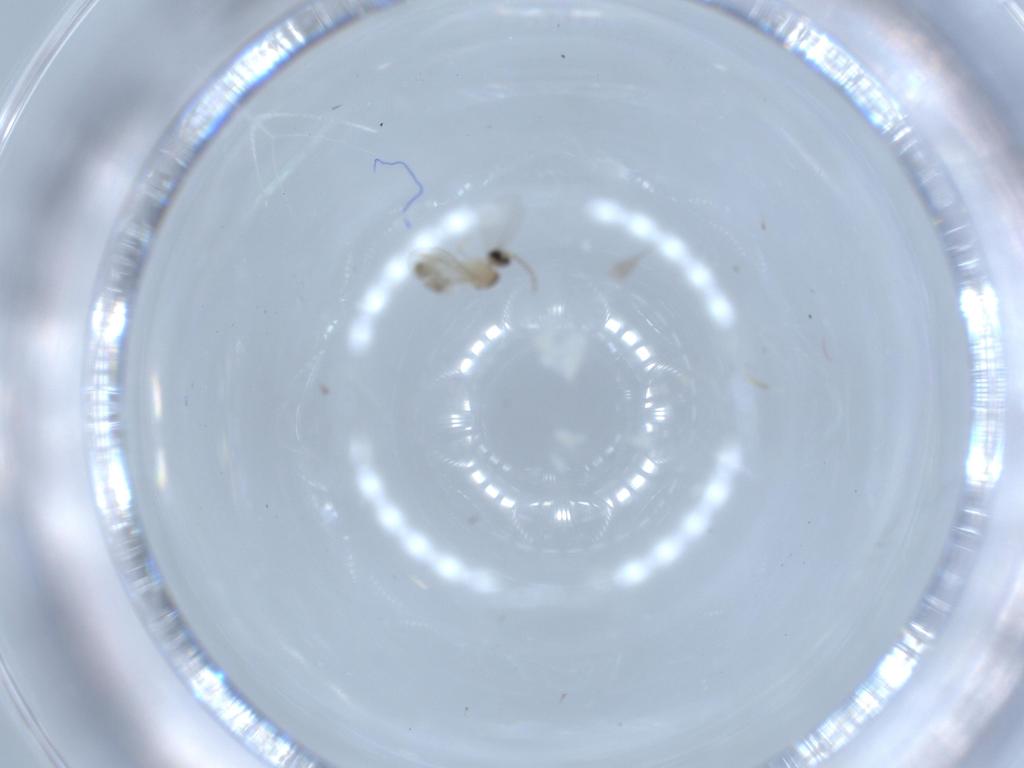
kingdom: Animalia
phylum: Arthropoda
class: Insecta
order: Diptera
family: Cecidomyiidae
